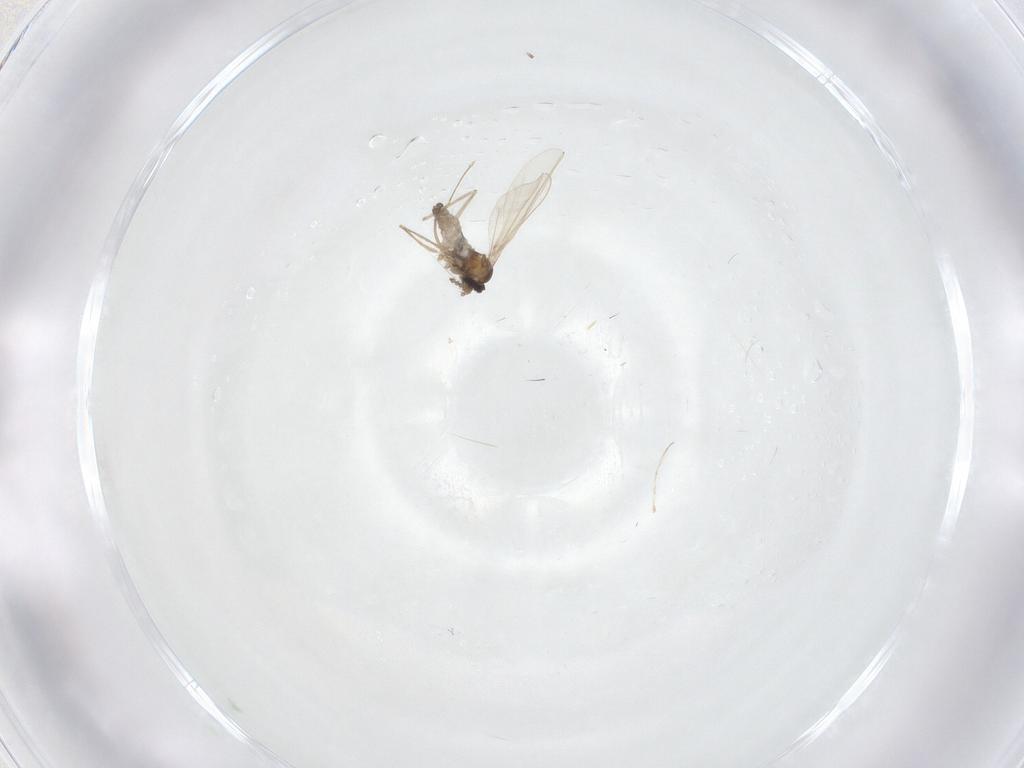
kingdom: Animalia
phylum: Arthropoda
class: Insecta
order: Diptera
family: Cecidomyiidae
